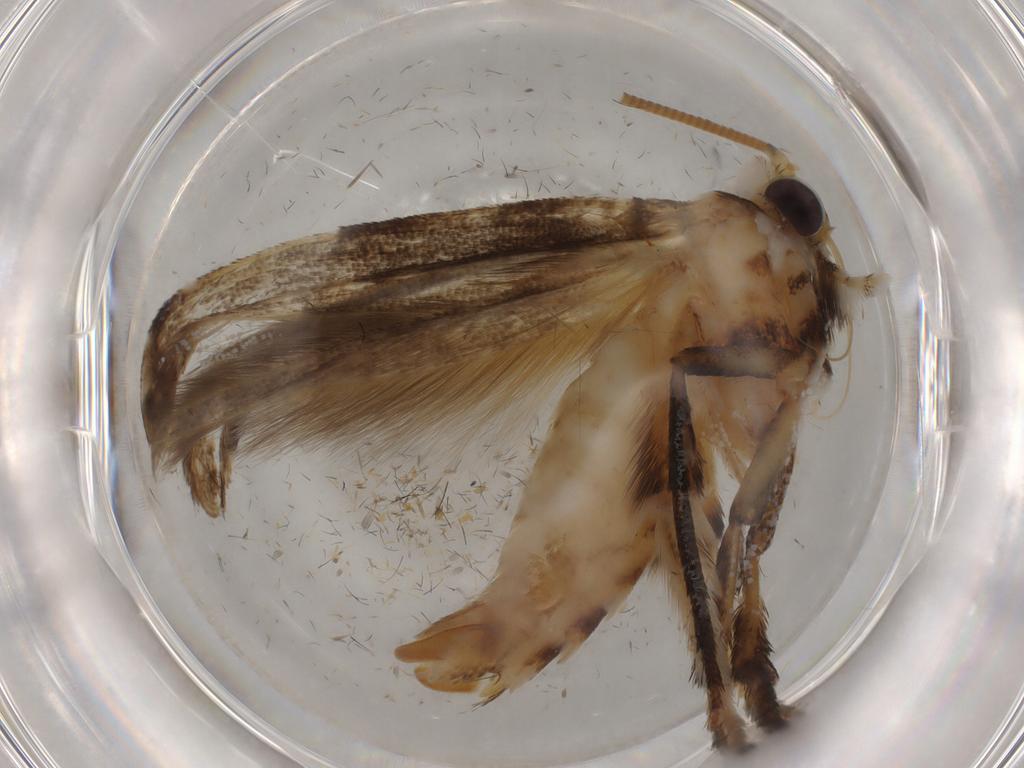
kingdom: Animalia
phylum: Arthropoda
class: Insecta
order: Lepidoptera
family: Gracillariidae
